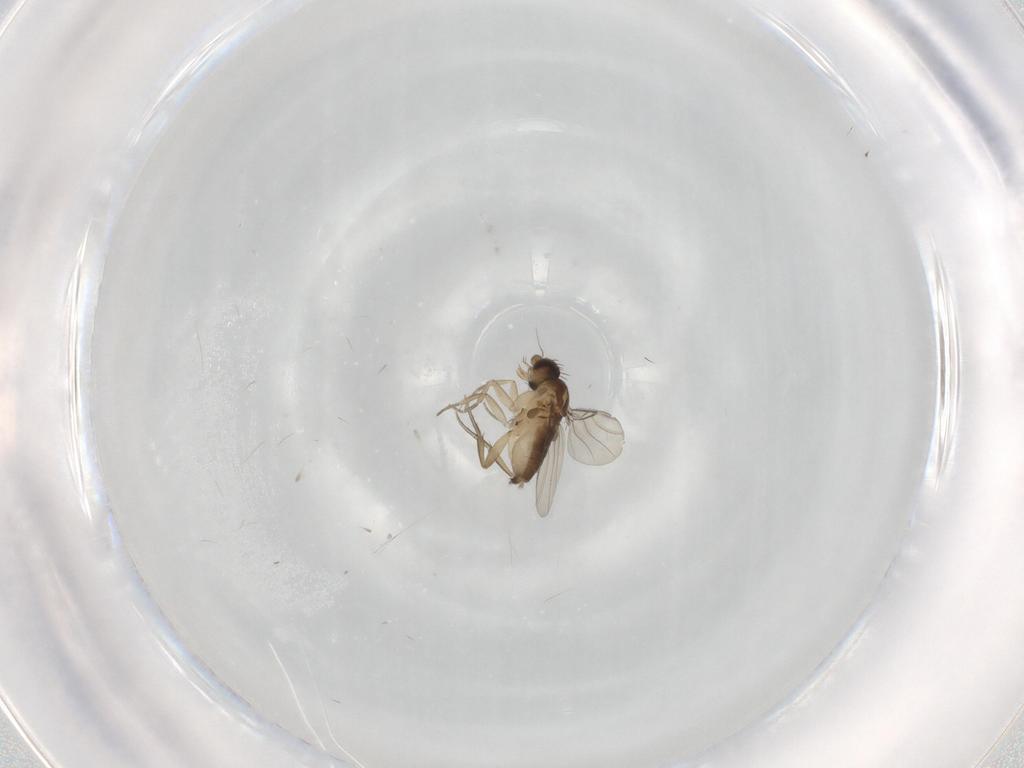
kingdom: Animalia
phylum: Arthropoda
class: Insecta
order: Diptera
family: Phoridae
